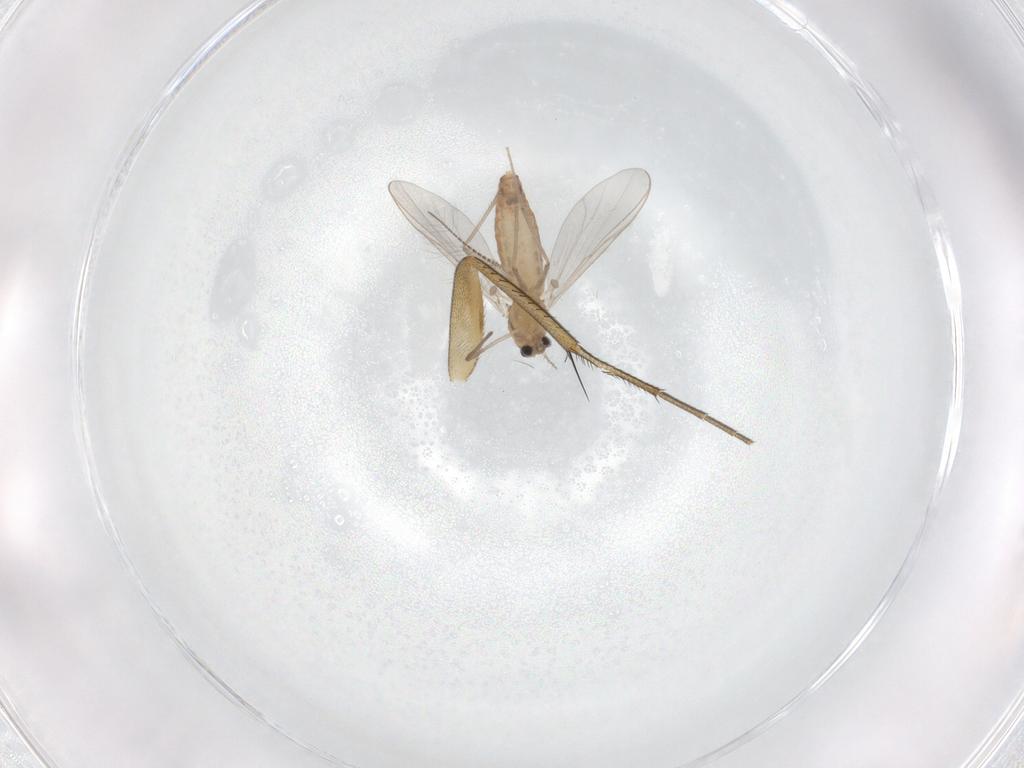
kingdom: Animalia
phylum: Arthropoda
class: Insecta
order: Diptera
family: Chironomidae
